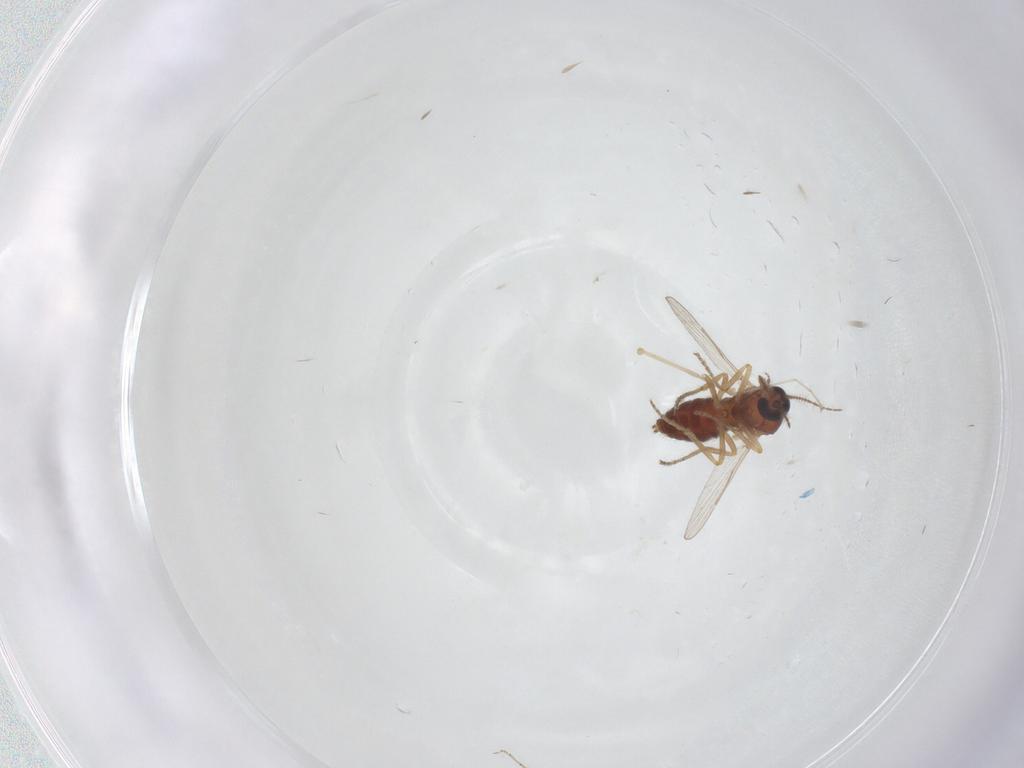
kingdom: Animalia
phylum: Arthropoda
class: Insecta
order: Diptera
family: Ceratopogonidae
